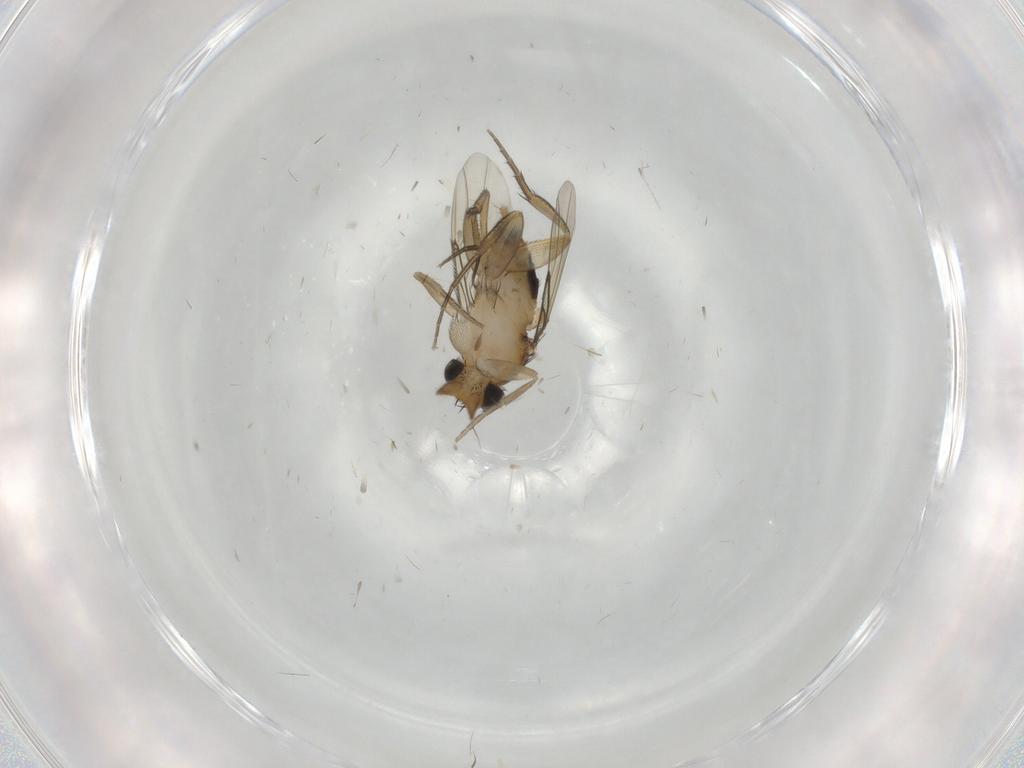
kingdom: Animalia
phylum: Arthropoda
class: Insecta
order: Diptera
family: Phoridae
